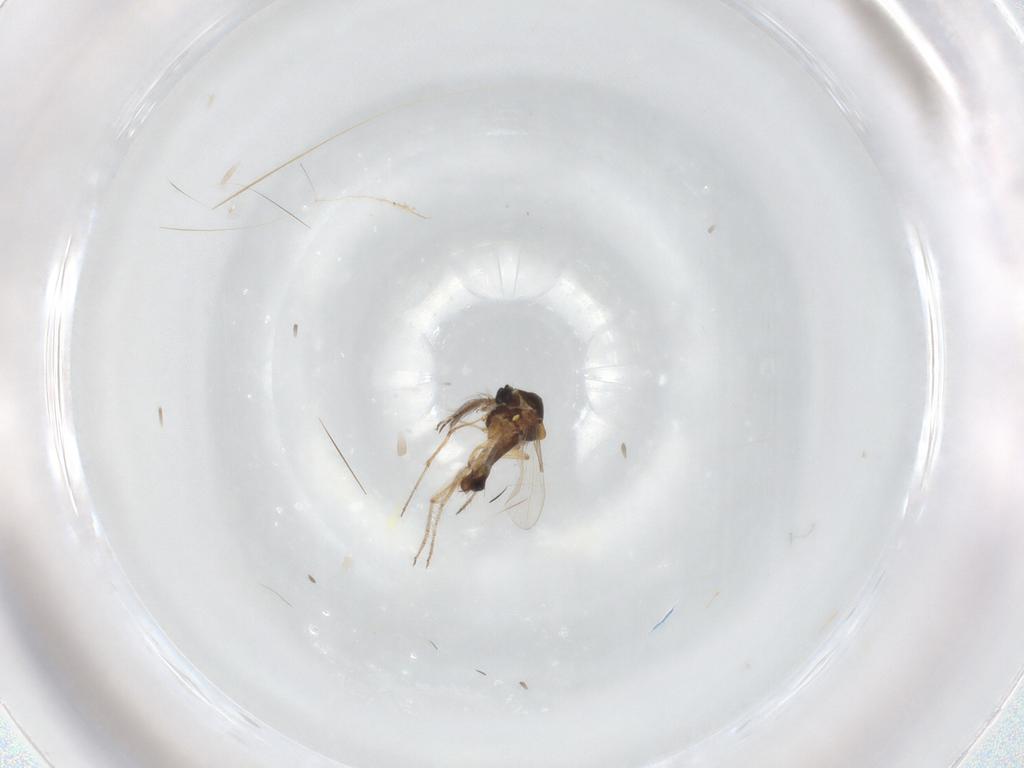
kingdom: Animalia
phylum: Arthropoda
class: Insecta
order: Diptera
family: Ceratopogonidae
